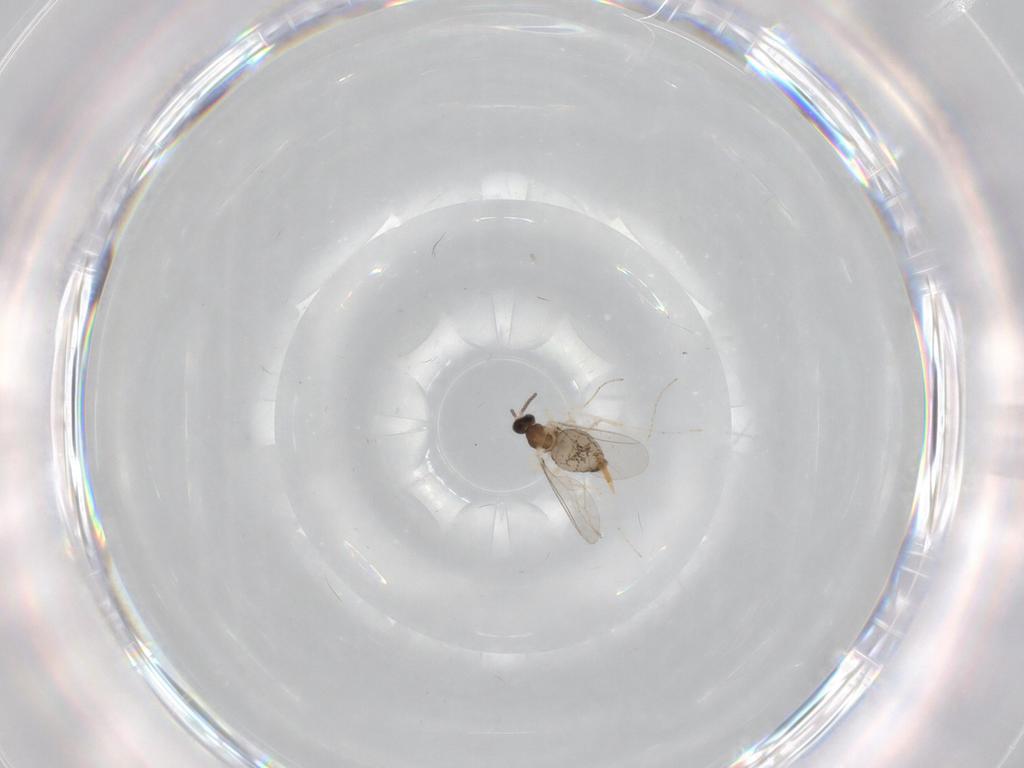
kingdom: Animalia
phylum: Arthropoda
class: Insecta
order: Diptera
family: Cecidomyiidae
